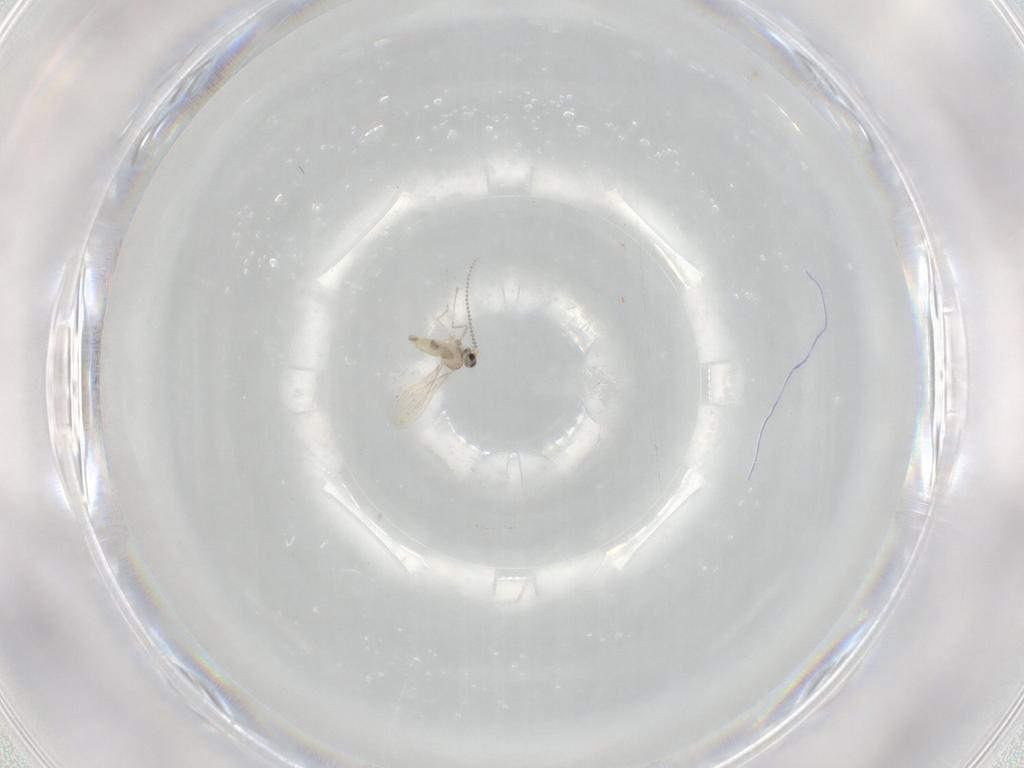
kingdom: Animalia
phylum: Arthropoda
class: Insecta
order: Diptera
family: Cecidomyiidae
